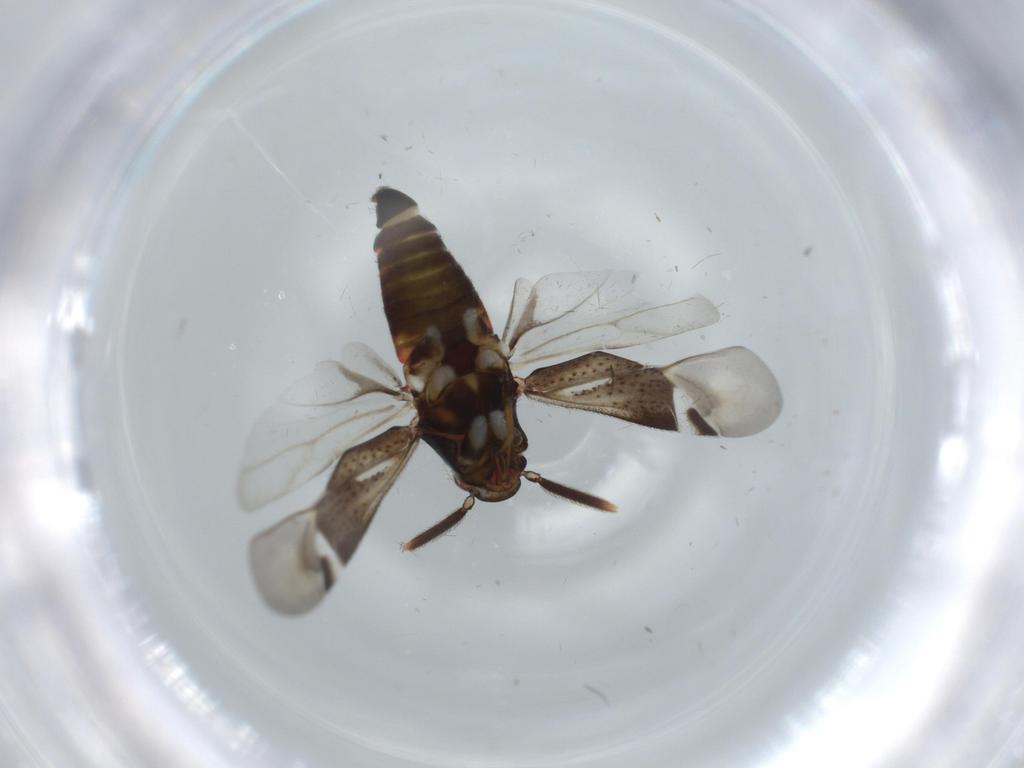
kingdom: Animalia
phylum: Arthropoda
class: Insecta
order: Hemiptera
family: Miridae
